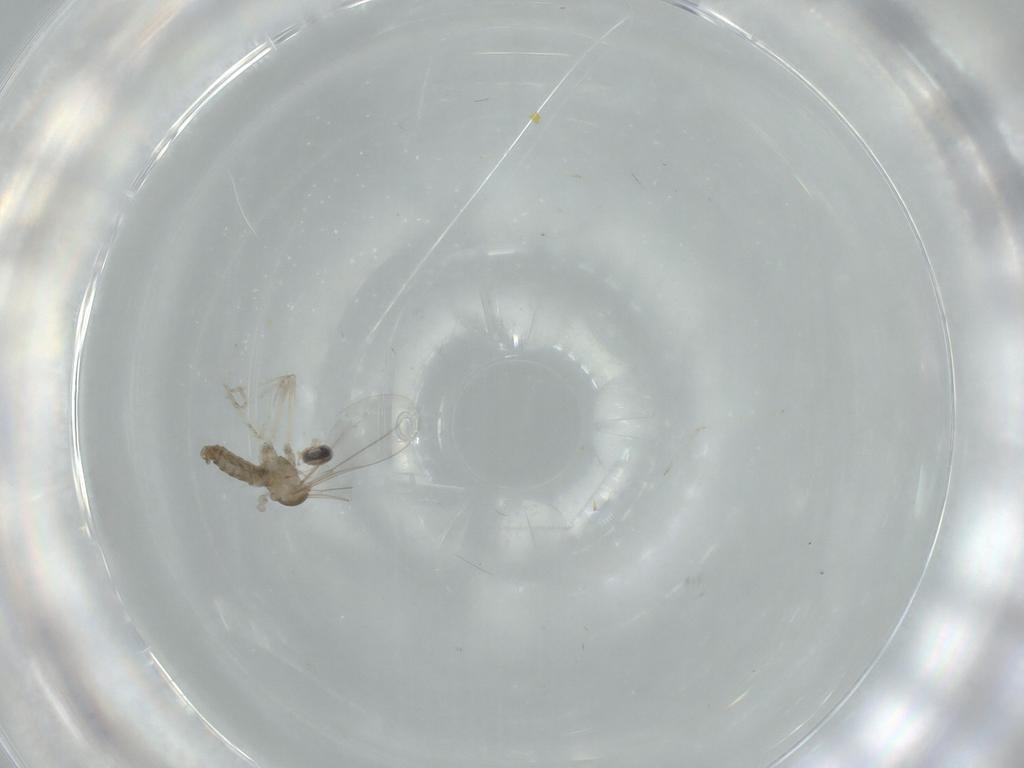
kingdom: Animalia
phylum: Arthropoda
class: Insecta
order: Diptera
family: Cecidomyiidae
